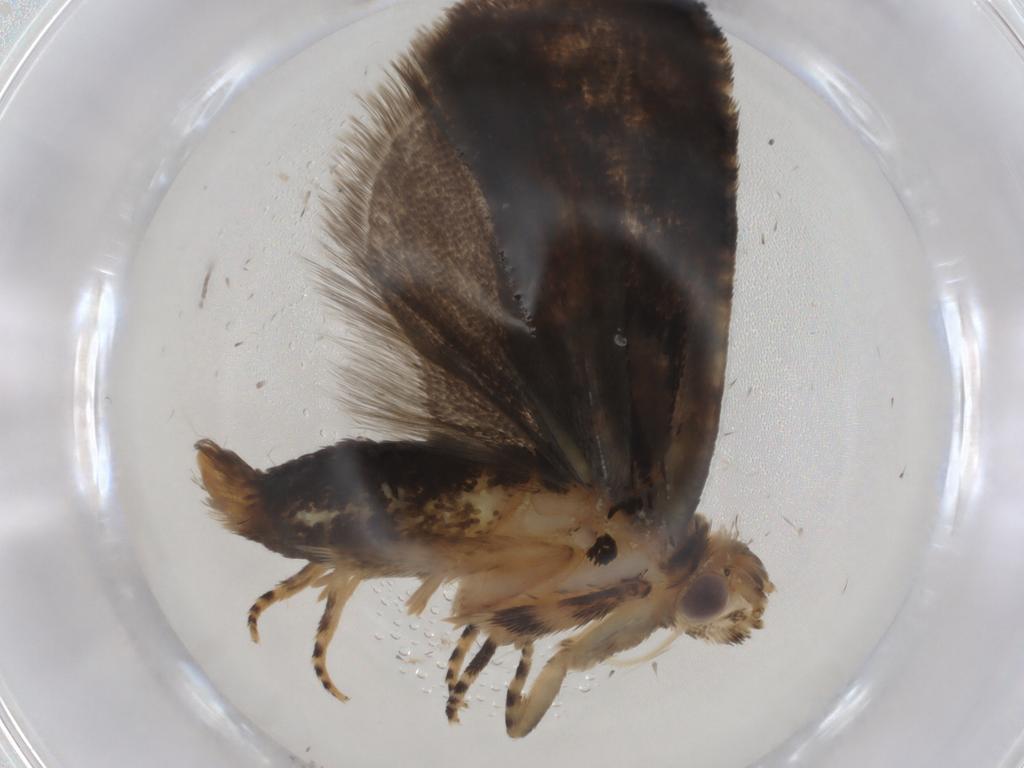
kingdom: Animalia
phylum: Arthropoda
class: Insecta
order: Lepidoptera
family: Tortricidae
